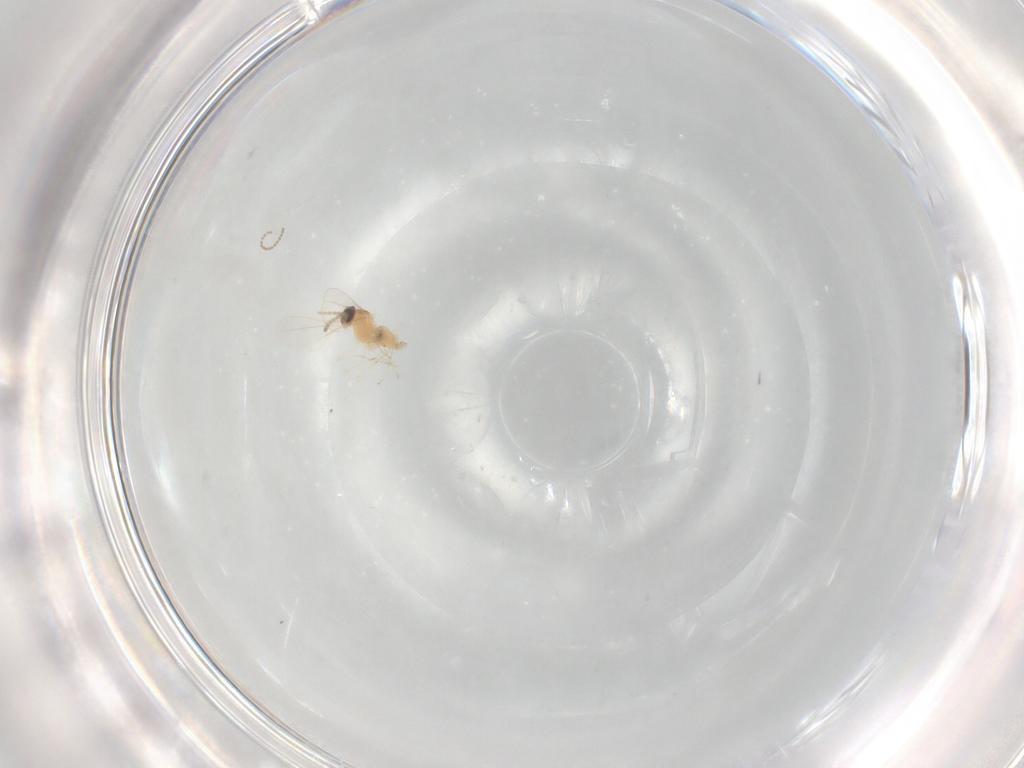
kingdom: Animalia
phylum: Arthropoda
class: Insecta
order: Diptera
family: Cecidomyiidae
